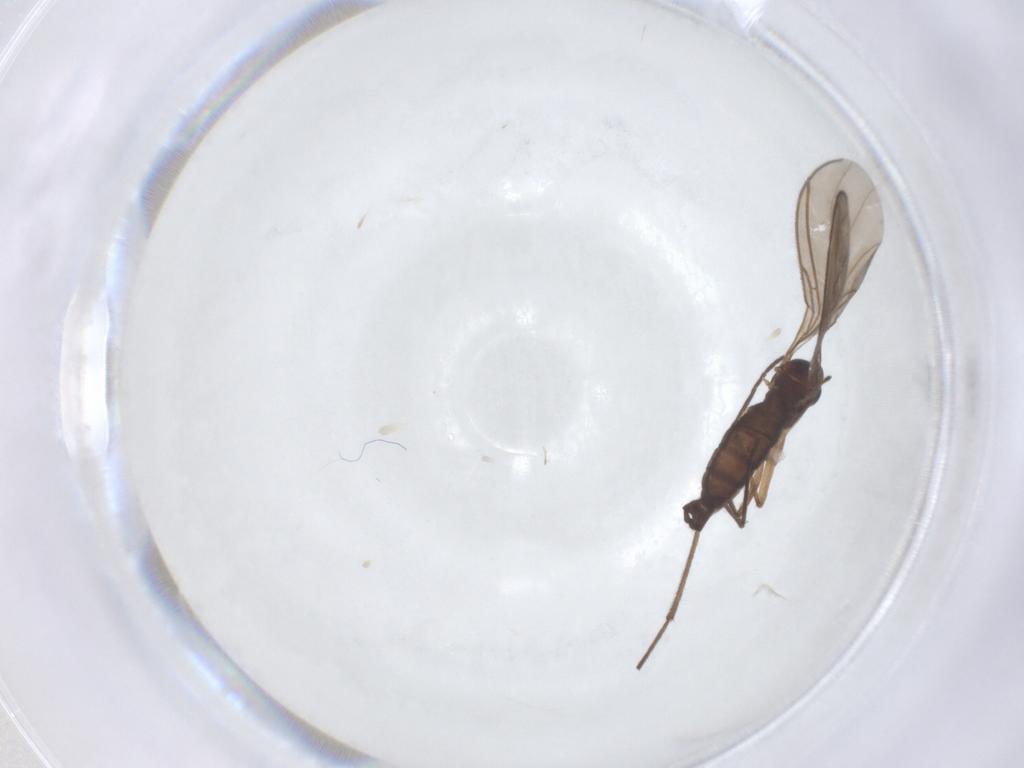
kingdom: Animalia
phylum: Arthropoda
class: Insecta
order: Diptera
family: Sciaridae
